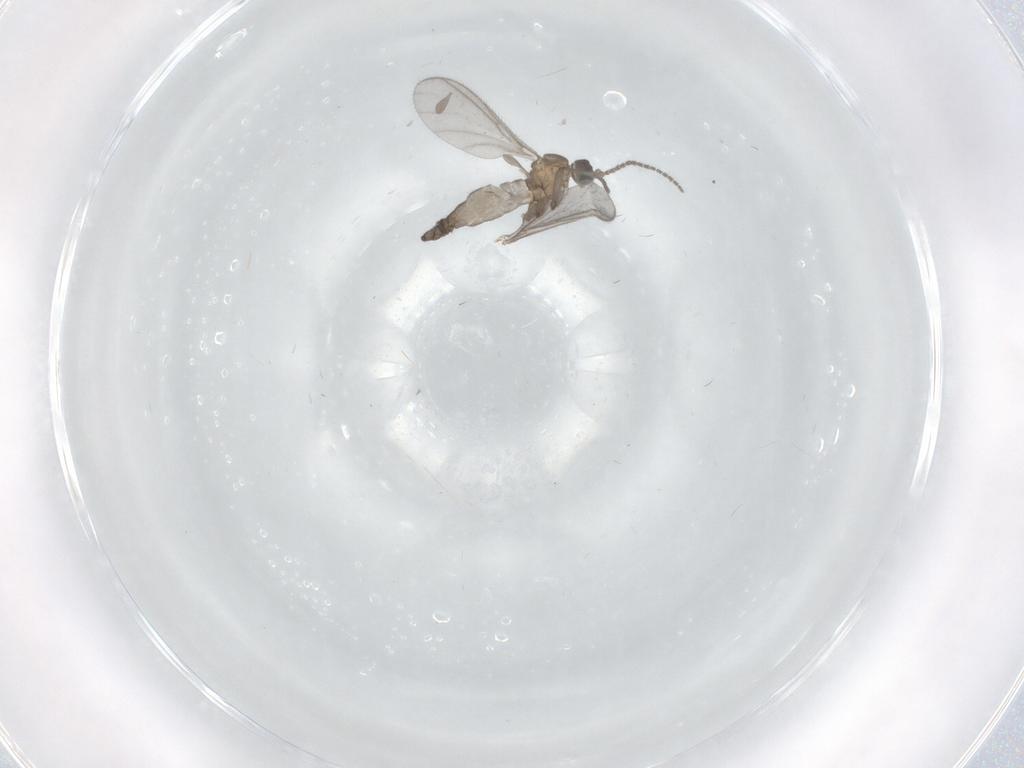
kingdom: Animalia
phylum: Arthropoda
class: Insecta
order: Diptera
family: Sciaridae
